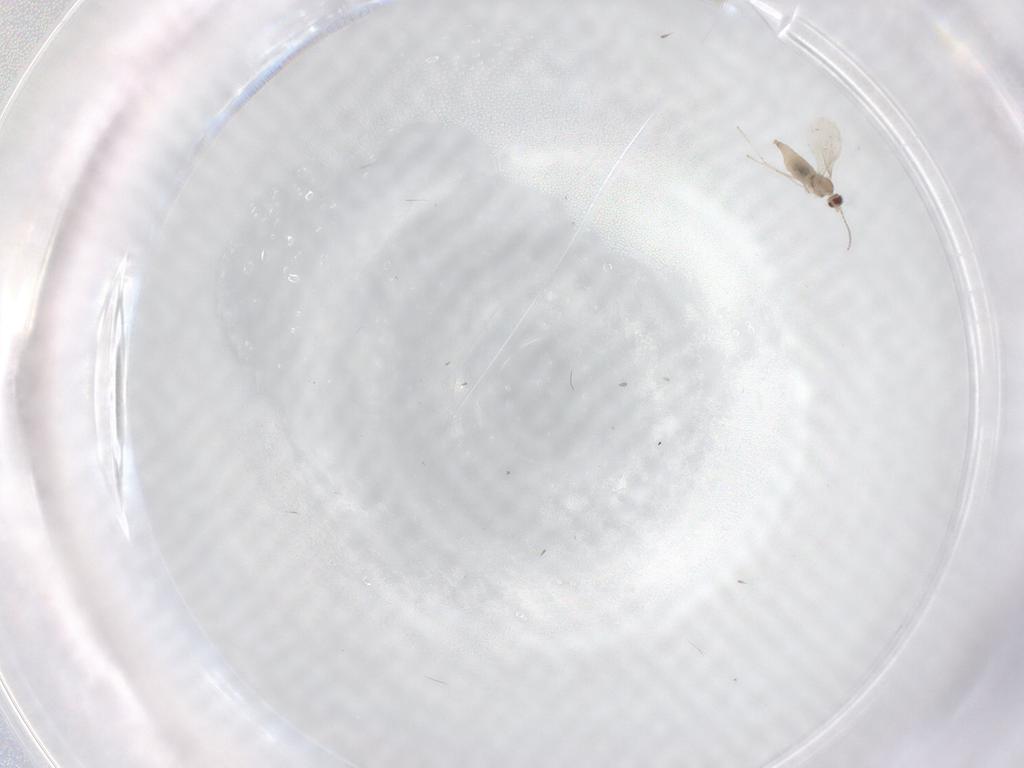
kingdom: Animalia
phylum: Arthropoda
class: Insecta
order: Diptera
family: Cecidomyiidae
